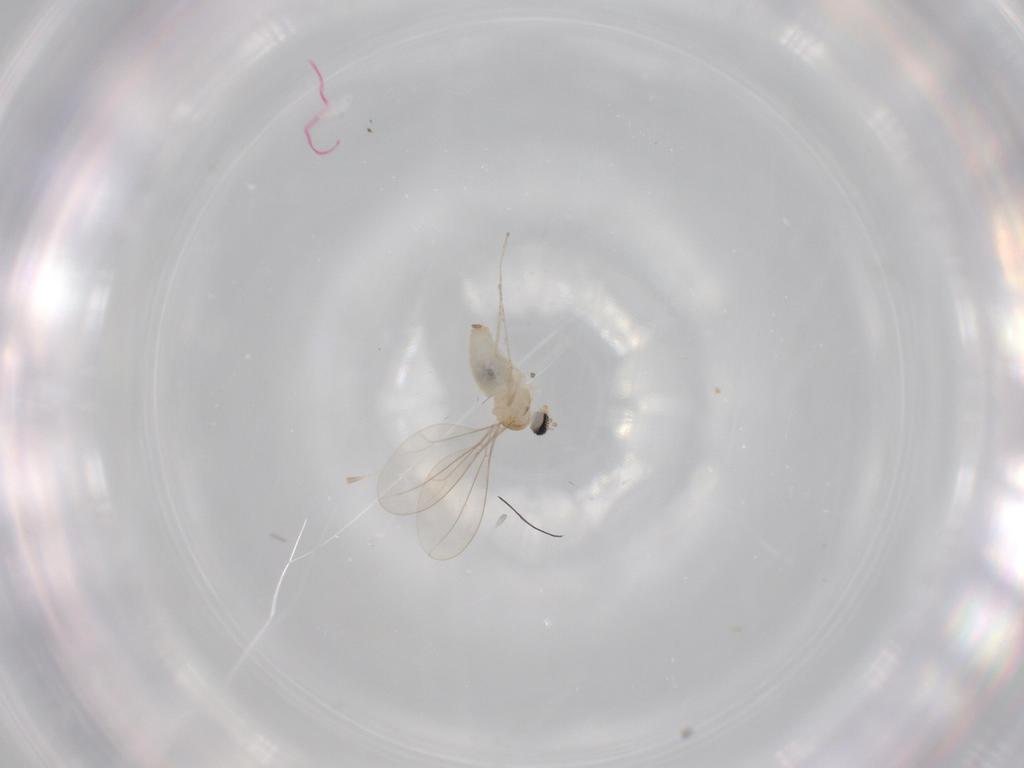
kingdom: Animalia
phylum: Arthropoda
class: Insecta
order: Diptera
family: Cecidomyiidae
